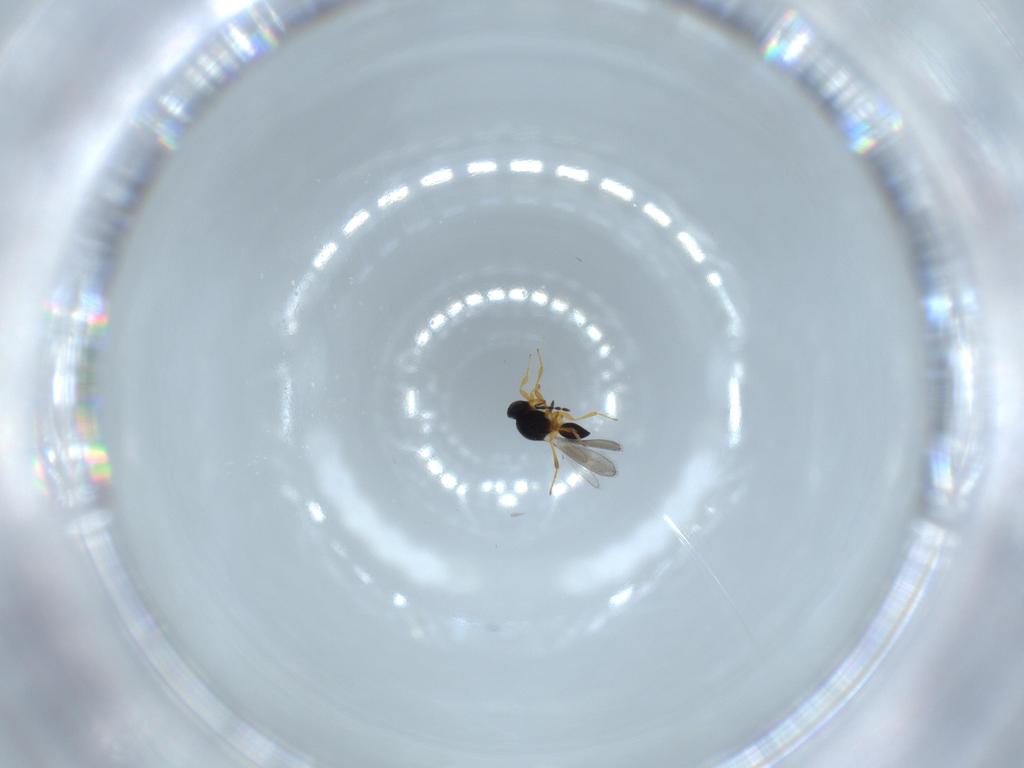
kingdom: Animalia
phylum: Arthropoda
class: Insecta
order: Hymenoptera
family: Platygastridae
